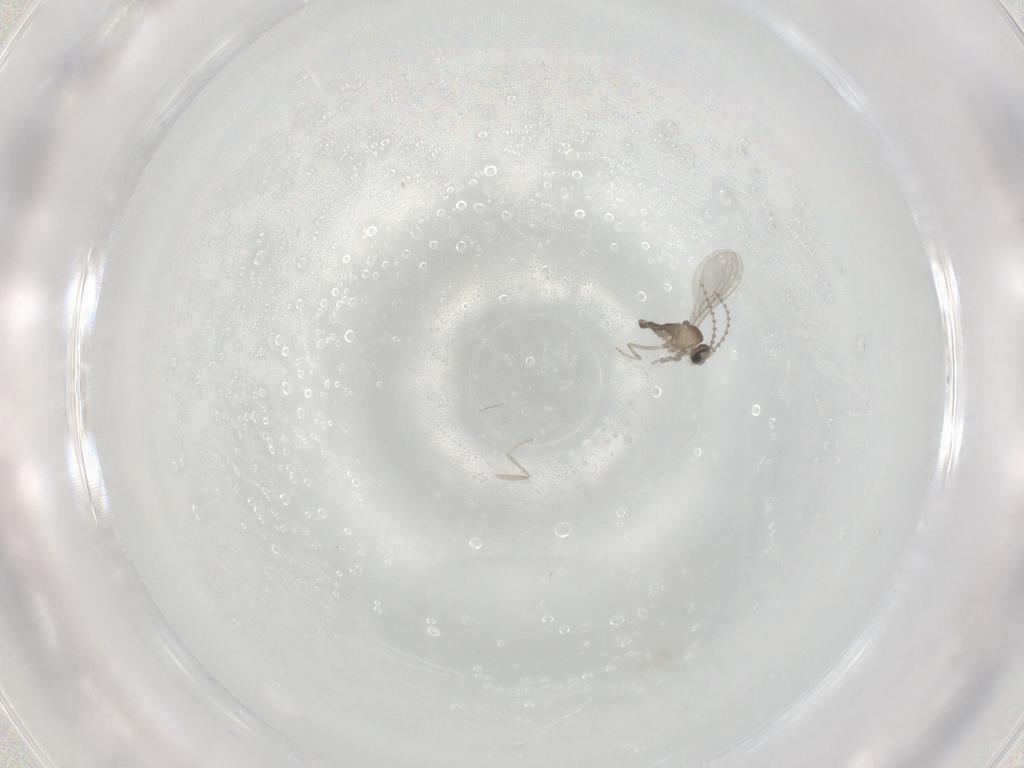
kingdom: Animalia
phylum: Arthropoda
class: Insecta
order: Diptera
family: Cecidomyiidae
